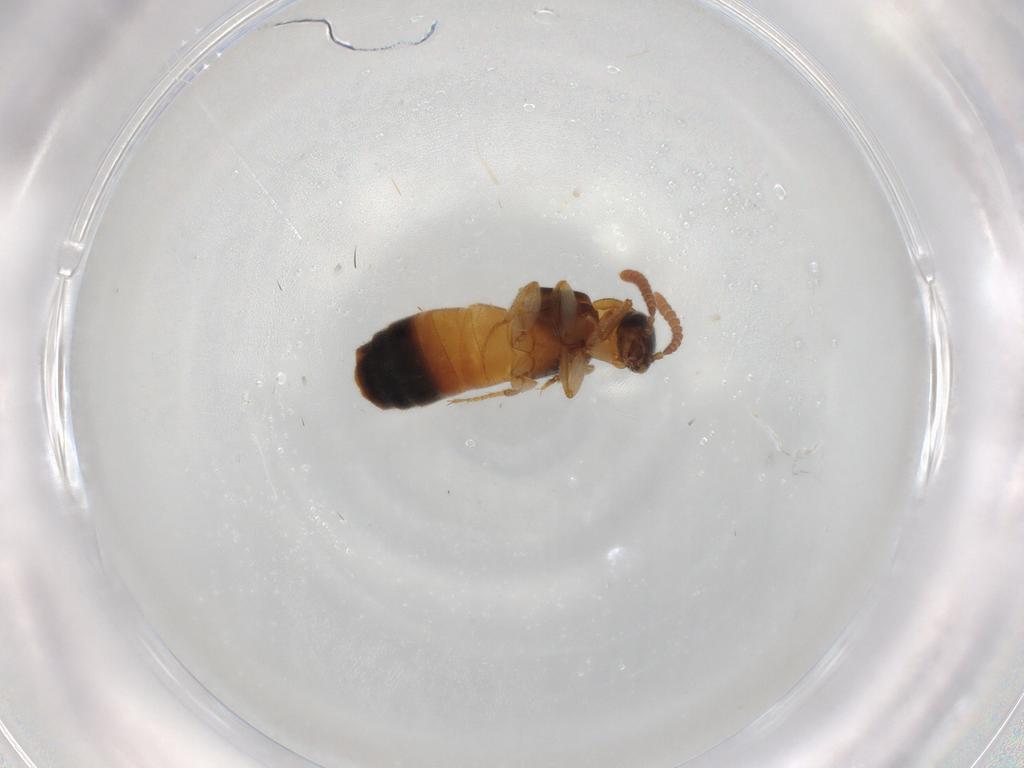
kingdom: Animalia
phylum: Arthropoda
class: Insecta
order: Coleoptera
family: Staphylinidae
